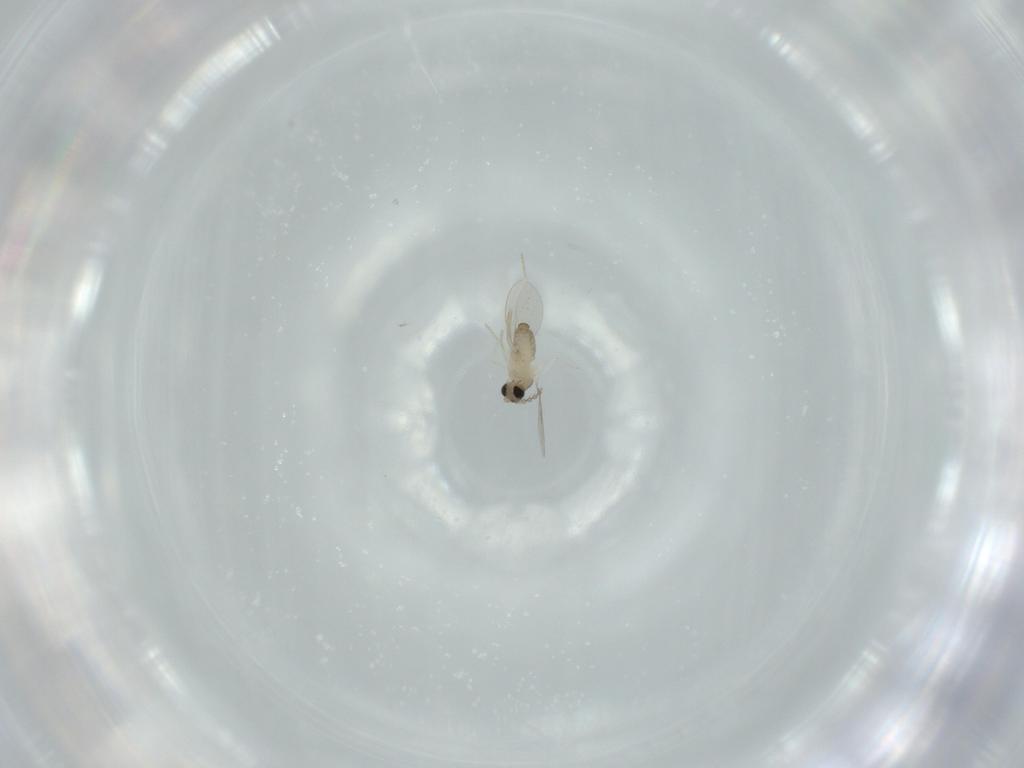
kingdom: Animalia
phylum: Arthropoda
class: Insecta
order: Diptera
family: Cecidomyiidae
